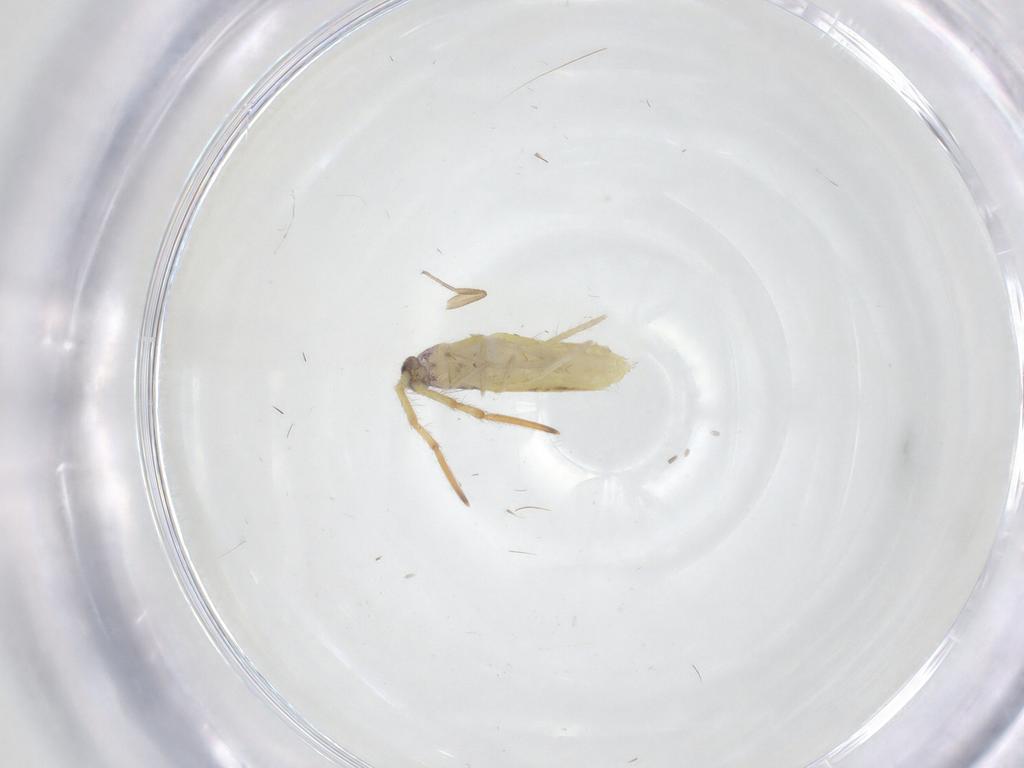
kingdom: Animalia
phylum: Arthropoda
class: Collembola
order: Entomobryomorpha
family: Entomobryidae
